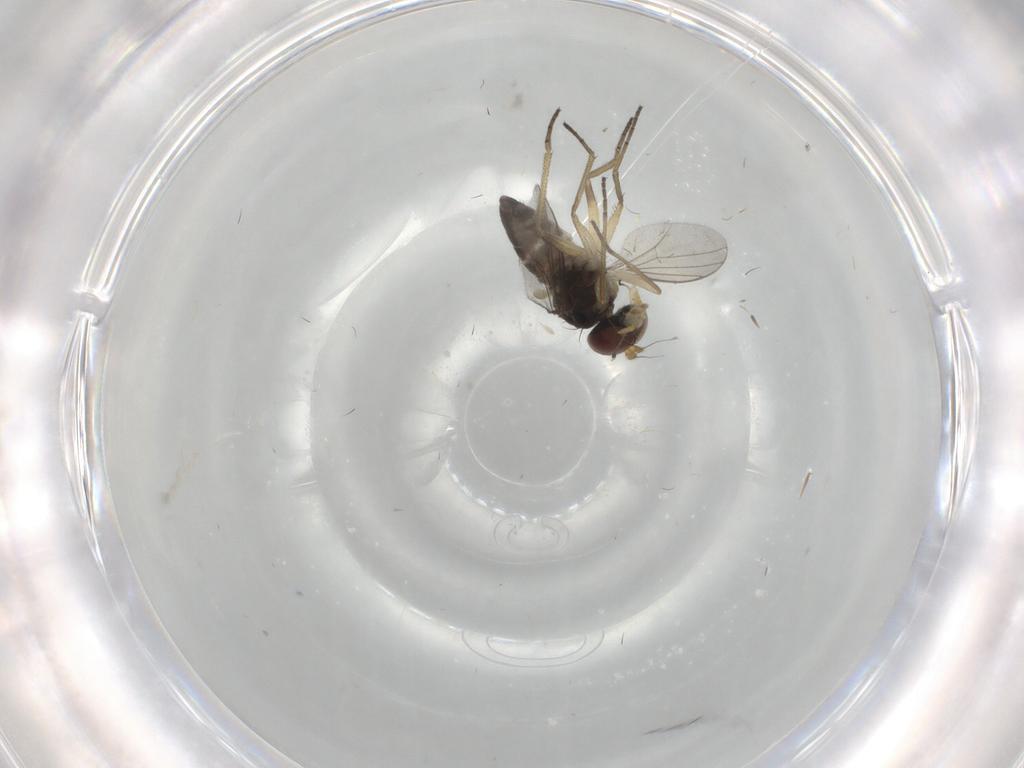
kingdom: Animalia
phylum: Arthropoda
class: Insecta
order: Diptera
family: Dolichopodidae
